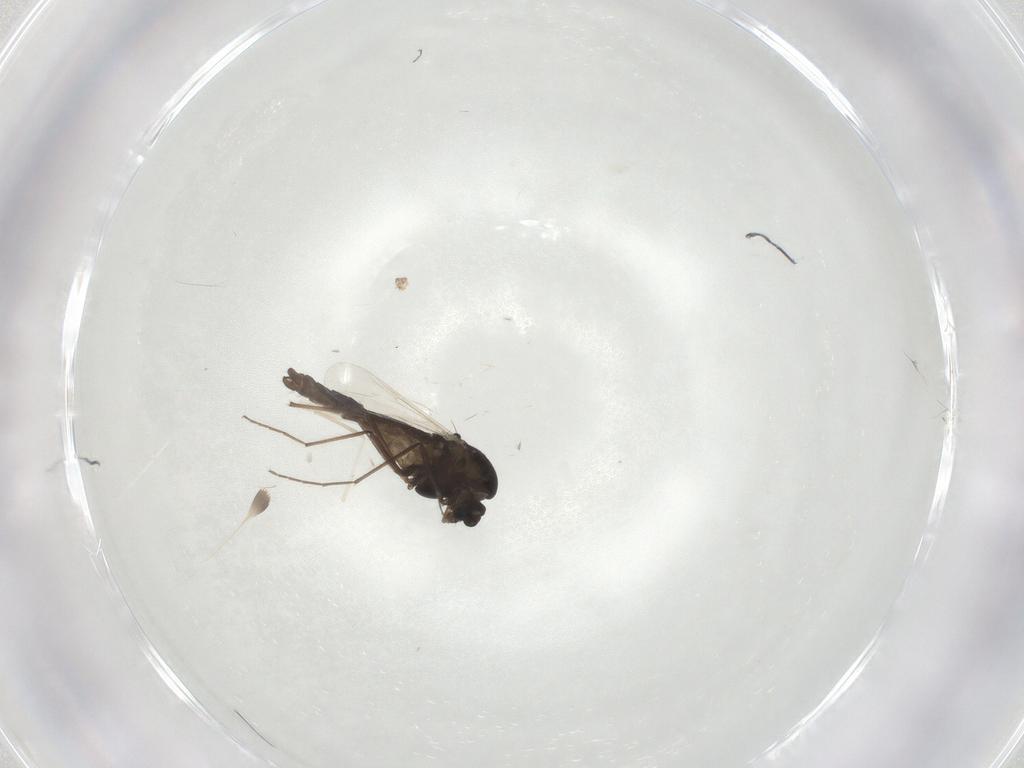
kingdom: Animalia
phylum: Arthropoda
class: Insecta
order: Diptera
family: Chironomidae
